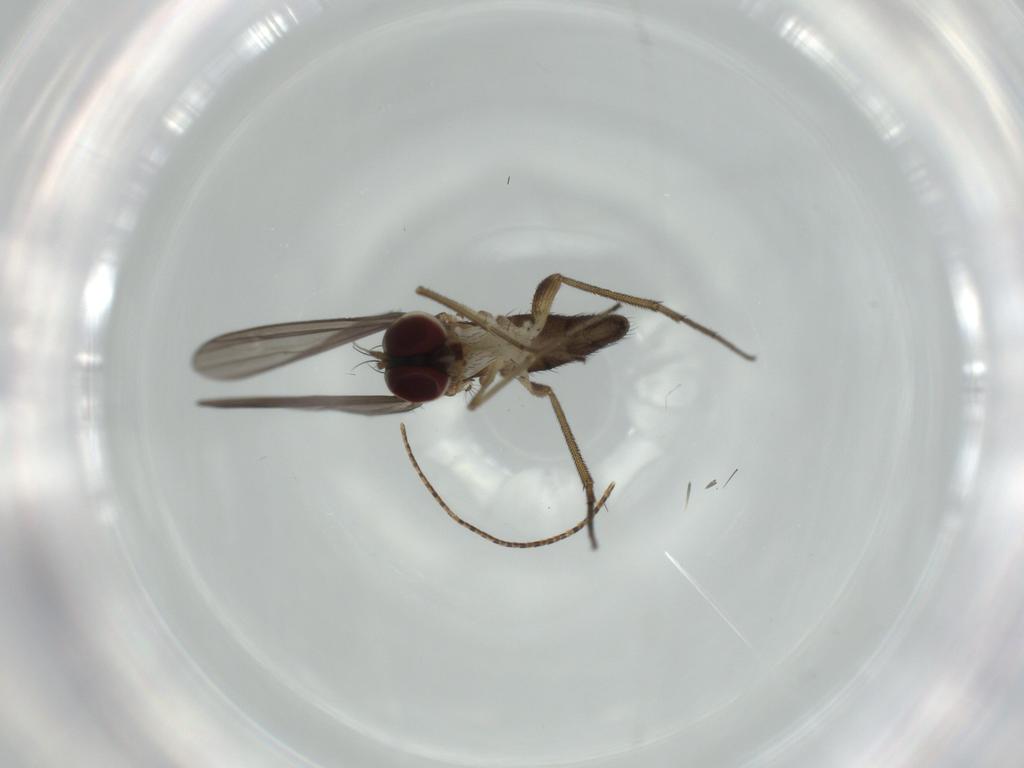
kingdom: Animalia
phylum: Arthropoda
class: Insecta
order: Diptera
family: Dolichopodidae
